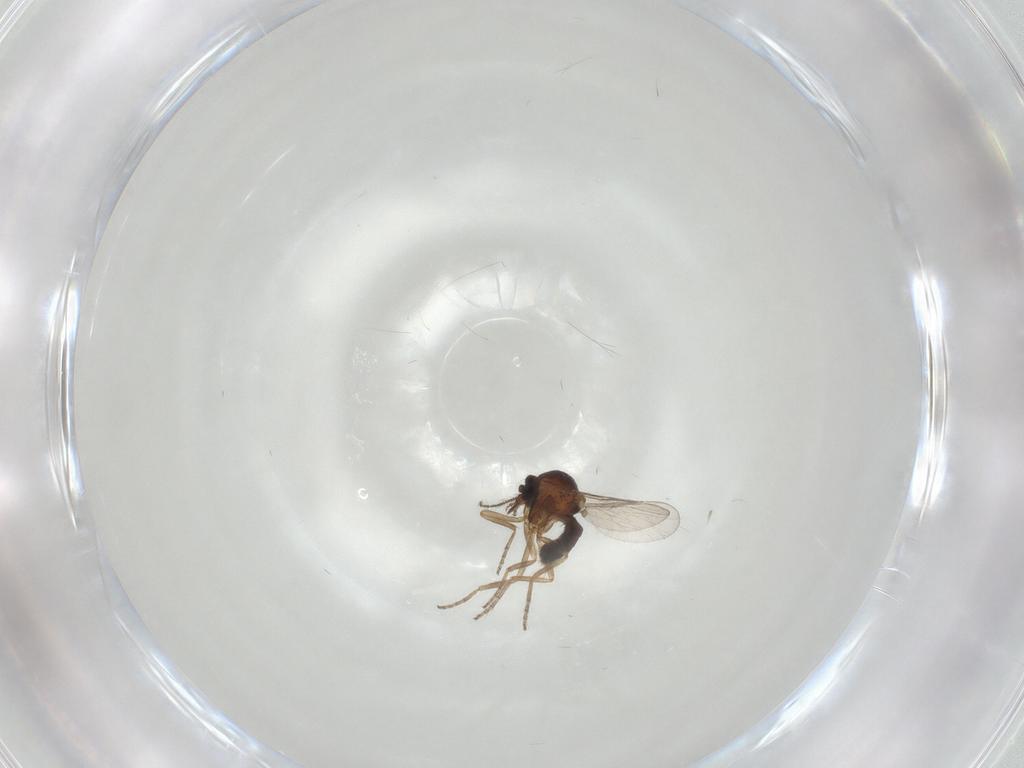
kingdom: Animalia
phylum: Arthropoda
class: Insecta
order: Diptera
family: Ceratopogonidae
